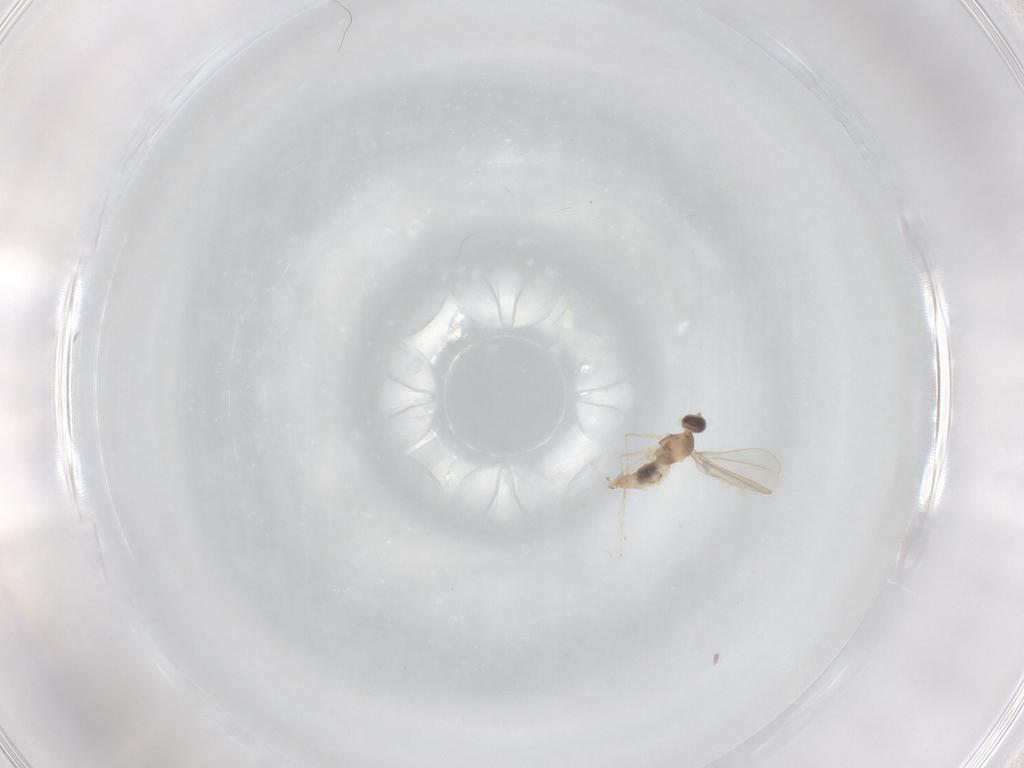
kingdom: Animalia
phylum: Arthropoda
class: Insecta
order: Diptera
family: Cecidomyiidae
